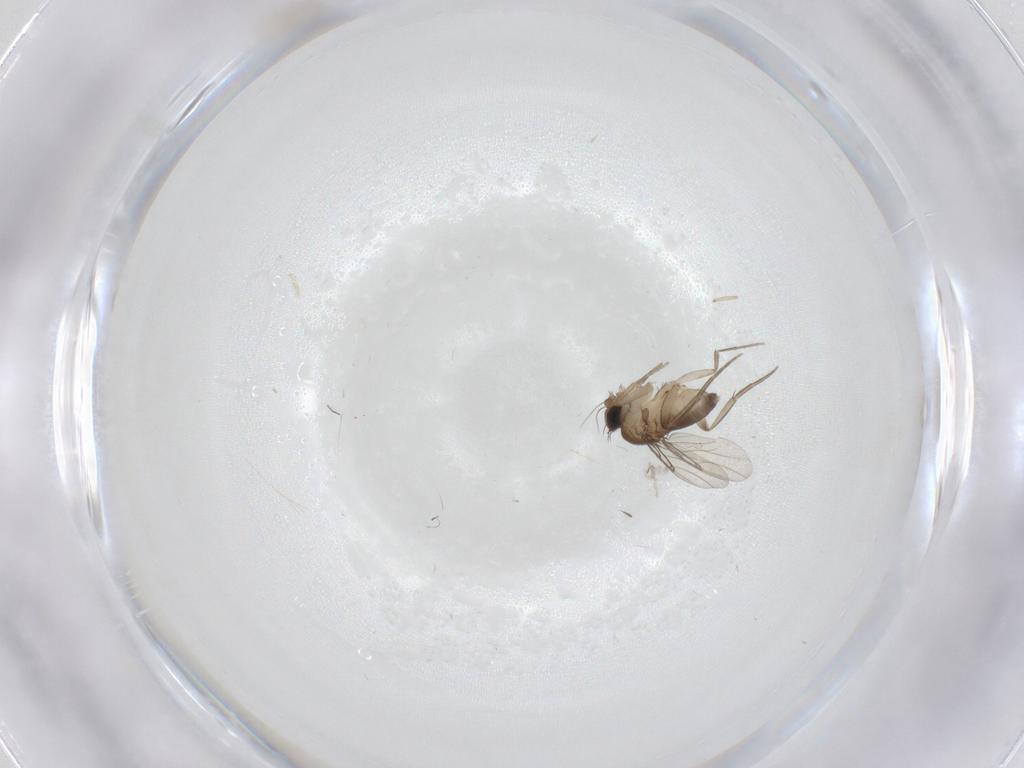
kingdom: Animalia
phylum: Arthropoda
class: Insecta
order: Diptera
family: Cecidomyiidae
